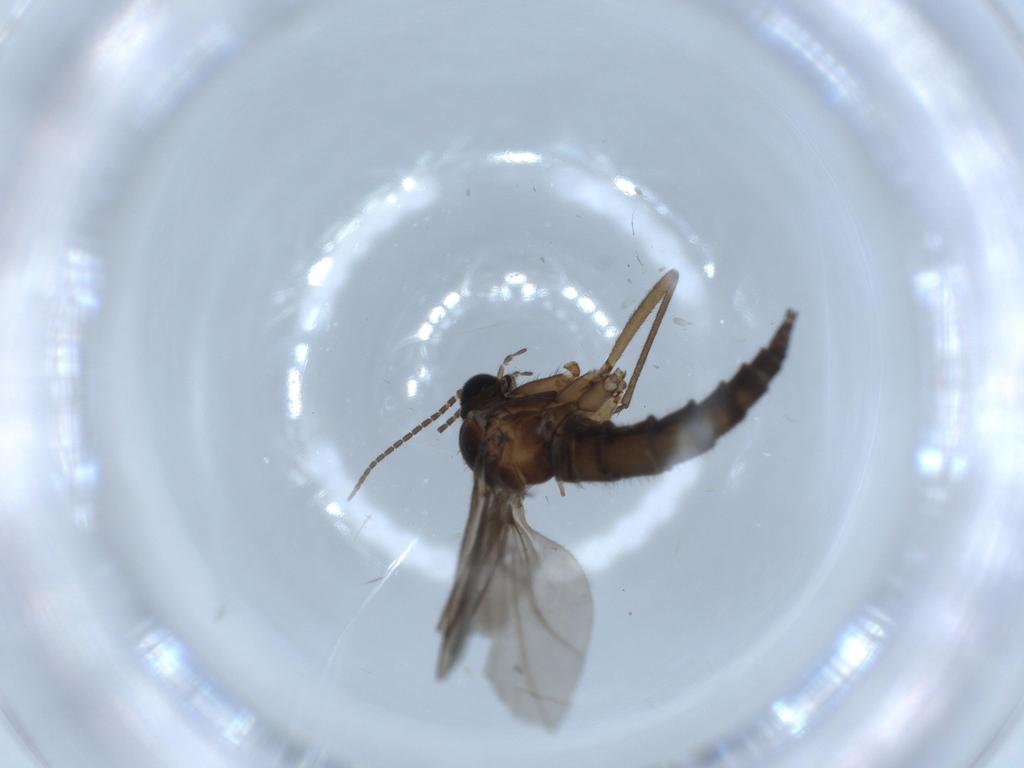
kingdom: Animalia
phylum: Arthropoda
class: Insecta
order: Diptera
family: Sciaridae
